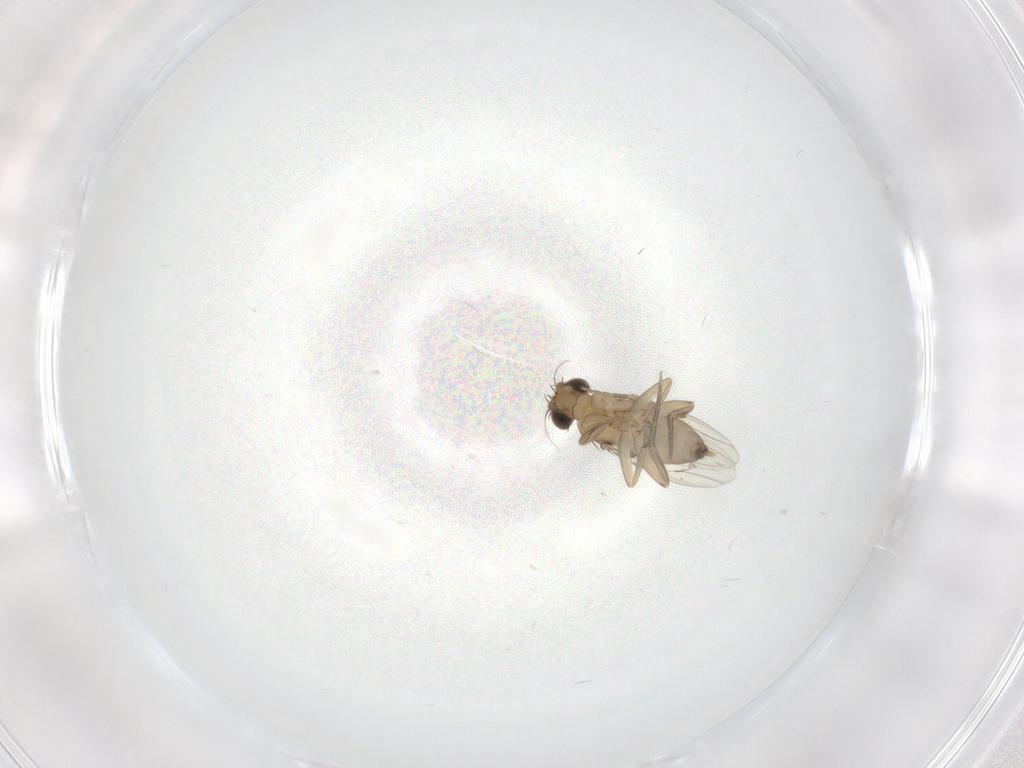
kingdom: Animalia
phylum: Arthropoda
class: Insecta
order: Diptera
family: Phoridae
